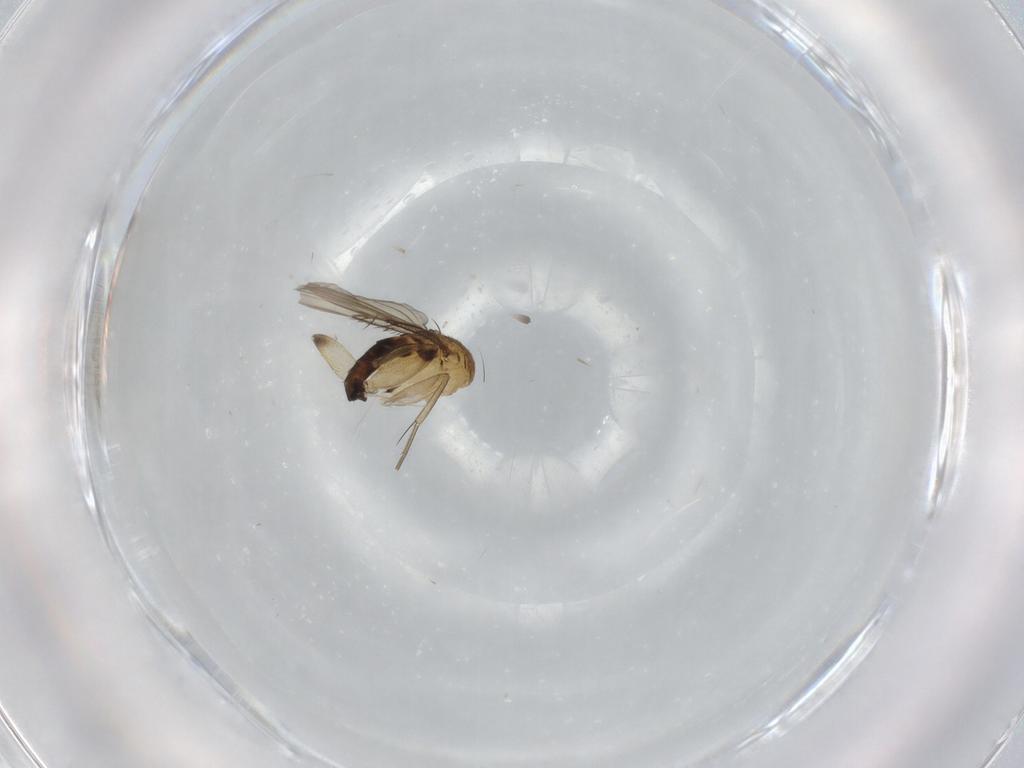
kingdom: Animalia
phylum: Arthropoda
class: Insecta
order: Diptera
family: Phoridae
